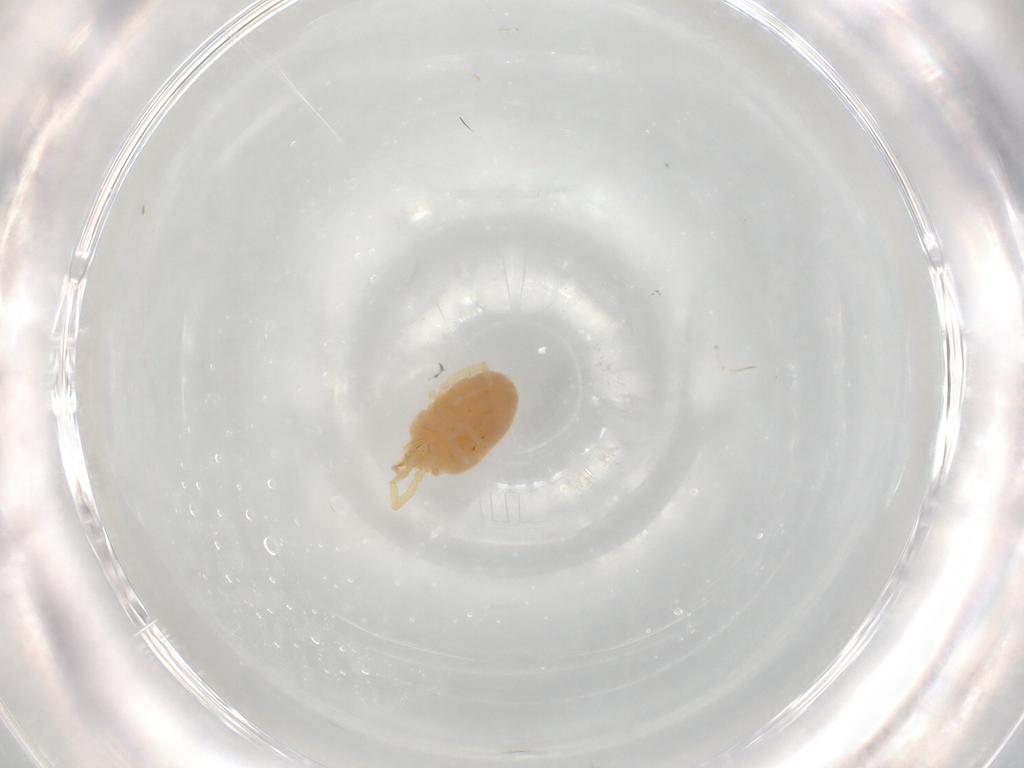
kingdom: Animalia
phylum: Arthropoda
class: Arachnida
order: Trombidiformes
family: Erythraeidae
